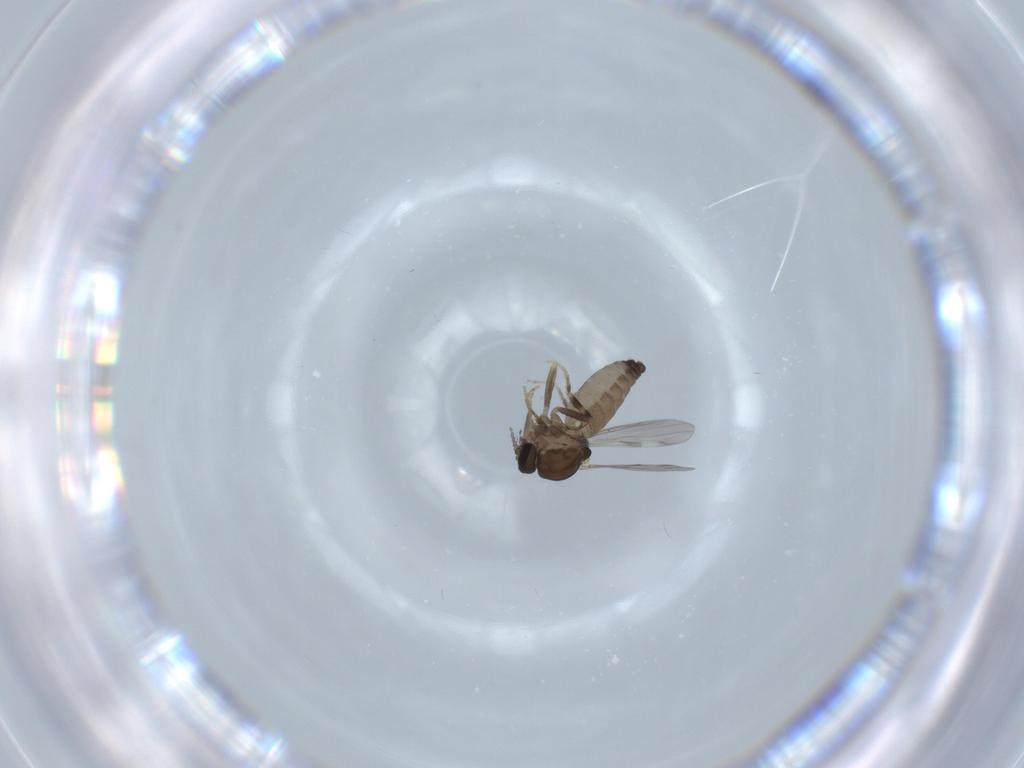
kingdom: Animalia
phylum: Arthropoda
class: Insecta
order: Diptera
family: Ceratopogonidae
